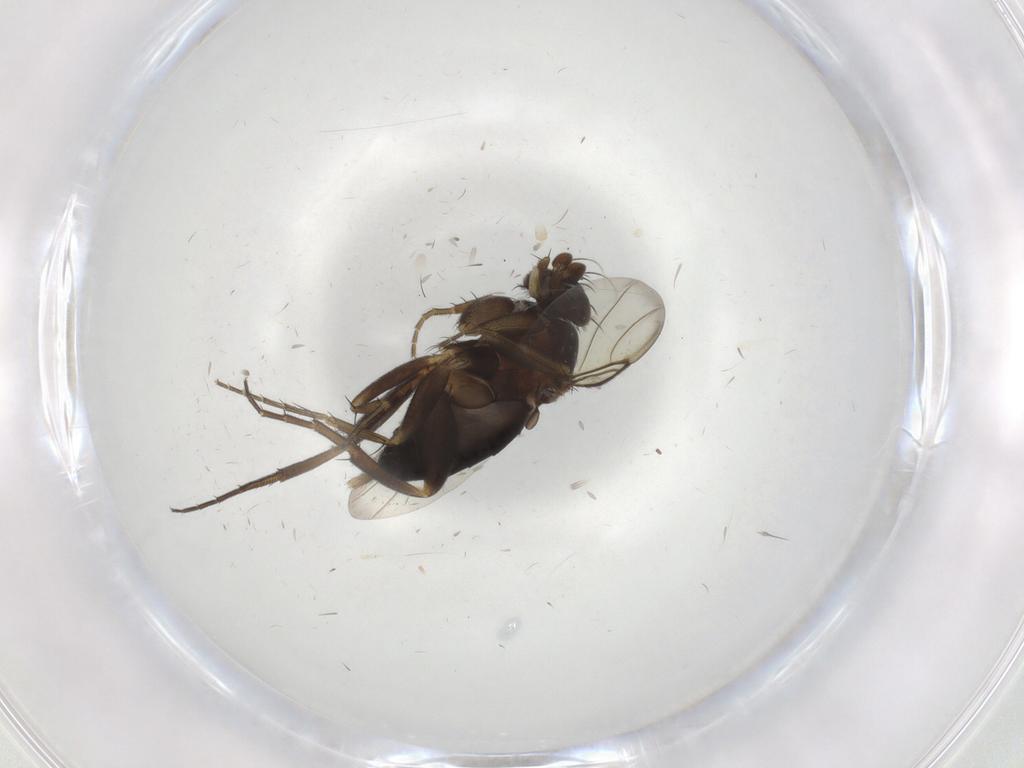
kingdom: Animalia
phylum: Arthropoda
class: Insecta
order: Diptera
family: Phoridae
